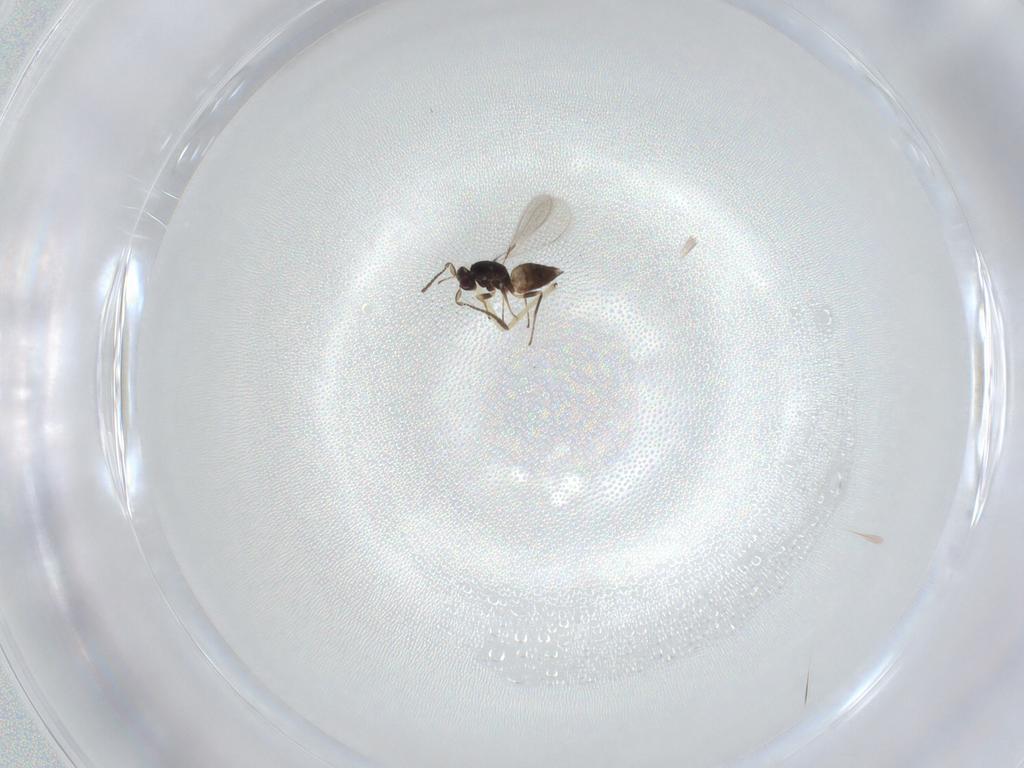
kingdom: Animalia
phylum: Arthropoda
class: Insecta
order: Hymenoptera
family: Mymaridae
